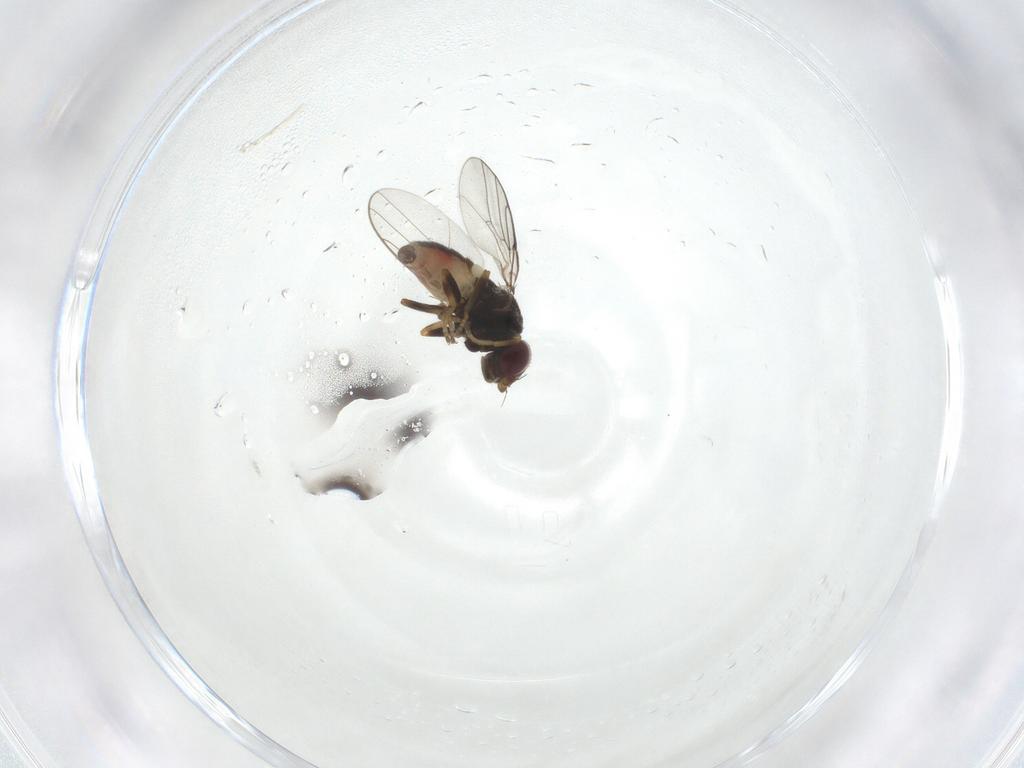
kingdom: Animalia
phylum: Arthropoda
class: Insecta
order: Diptera
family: Chloropidae
